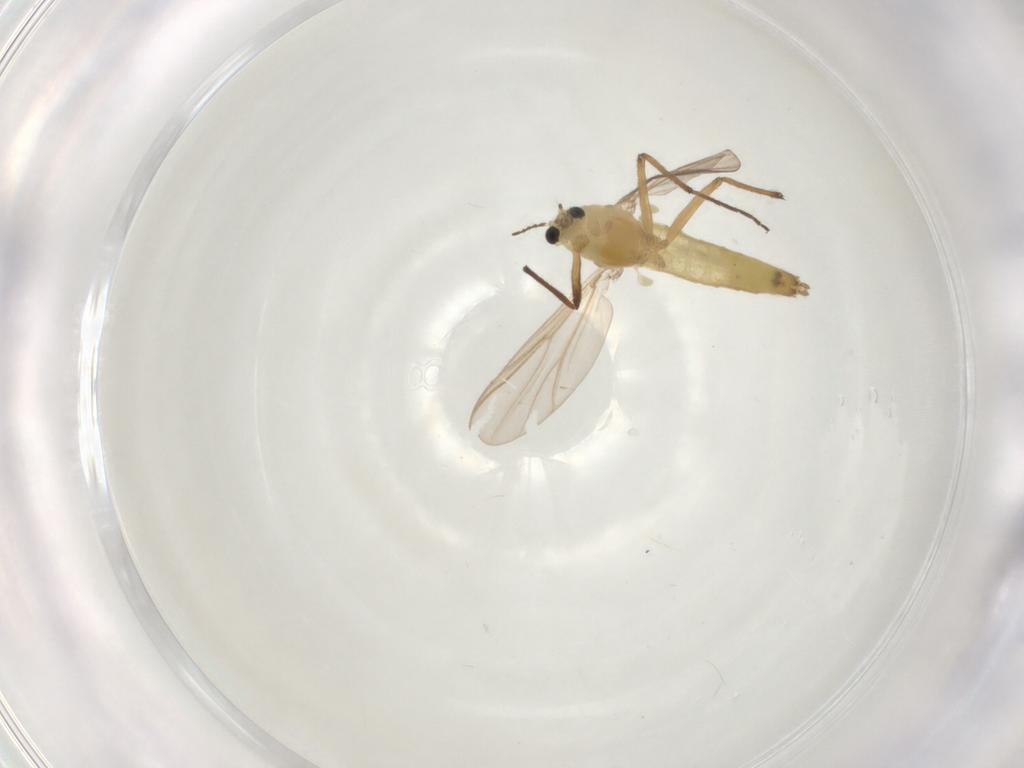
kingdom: Animalia
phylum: Arthropoda
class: Insecta
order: Diptera
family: Chironomidae
